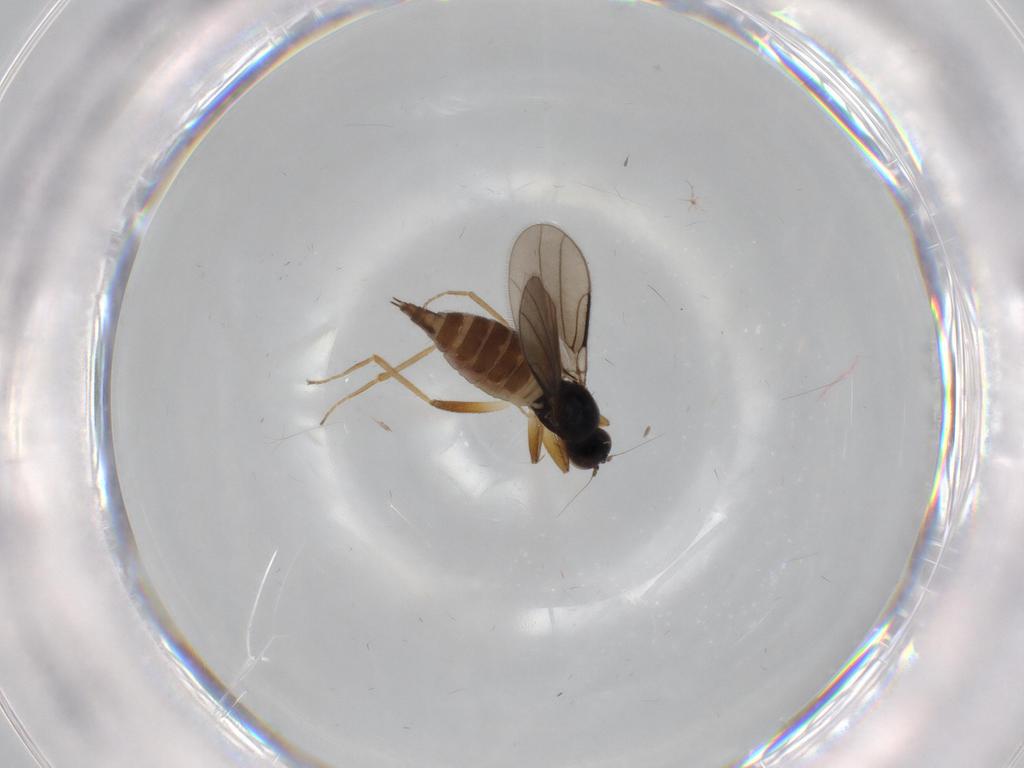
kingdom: Animalia
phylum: Arthropoda
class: Insecta
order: Diptera
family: Hybotidae
